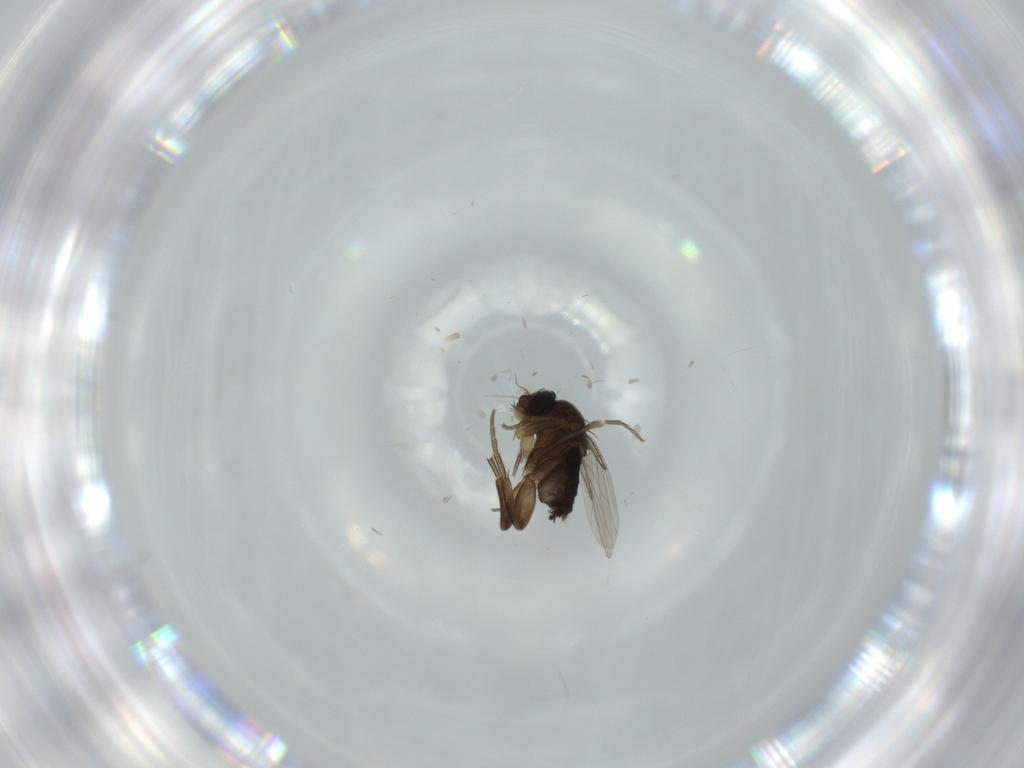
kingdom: Animalia
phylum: Arthropoda
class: Insecta
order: Diptera
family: Phoridae
